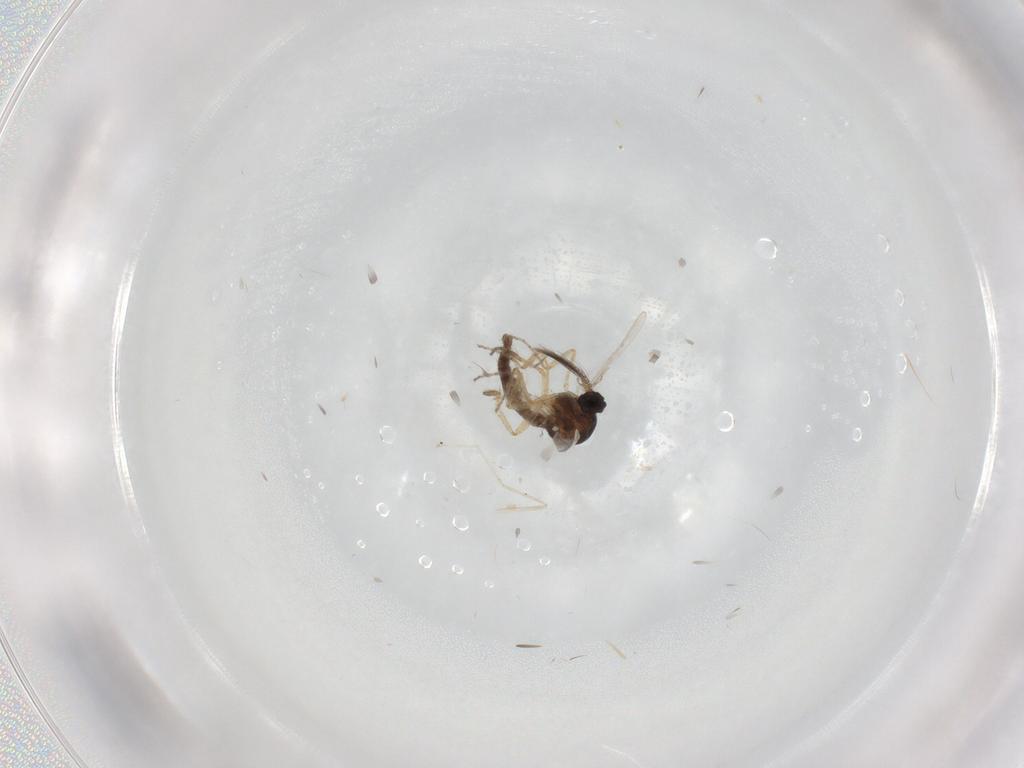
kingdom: Animalia
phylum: Arthropoda
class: Insecta
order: Diptera
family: Ceratopogonidae
